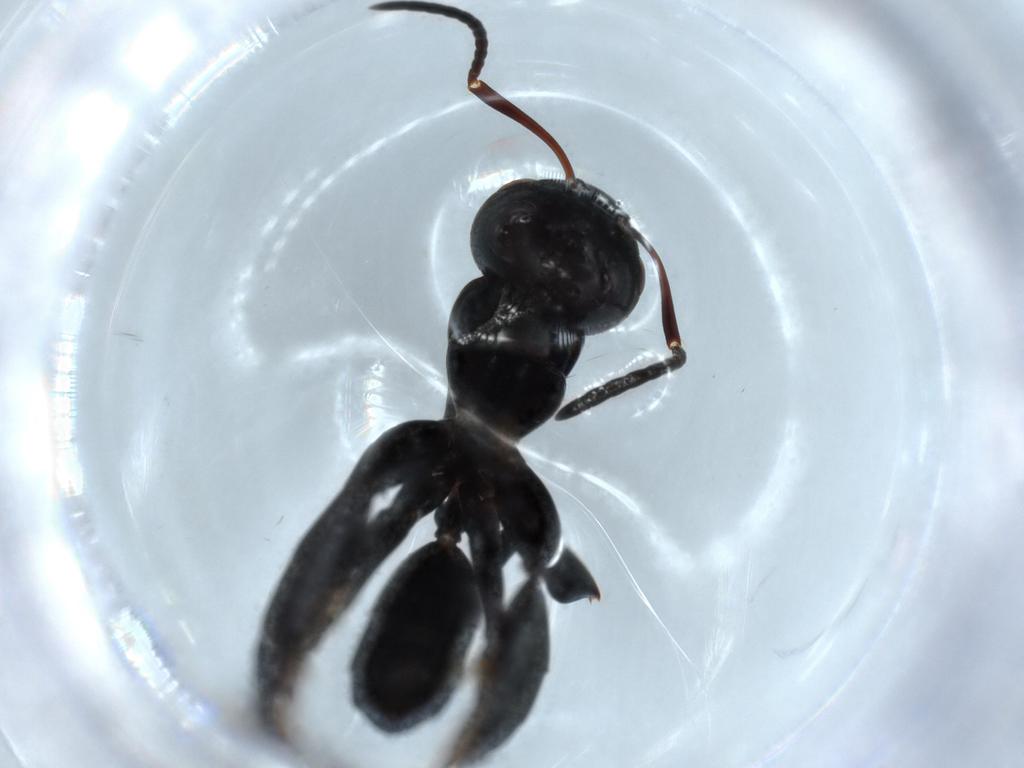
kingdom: Animalia
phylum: Arthropoda
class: Insecta
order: Hymenoptera
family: Formicidae
